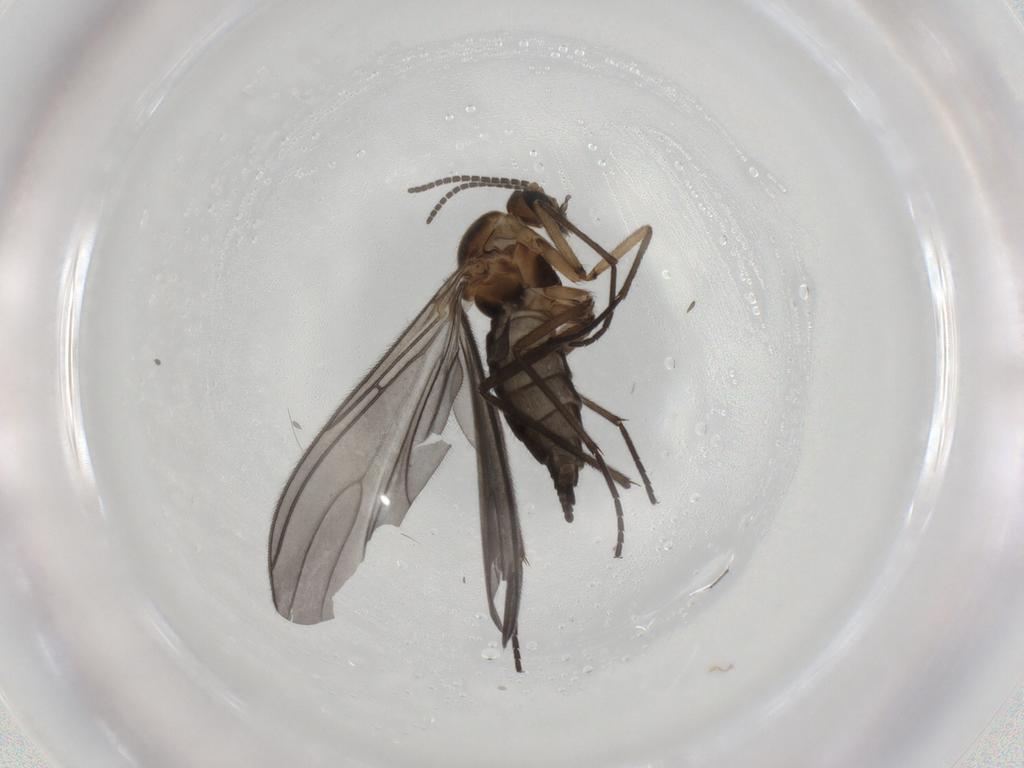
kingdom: Animalia
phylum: Arthropoda
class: Insecta
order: Diptera
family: Sciaridae
